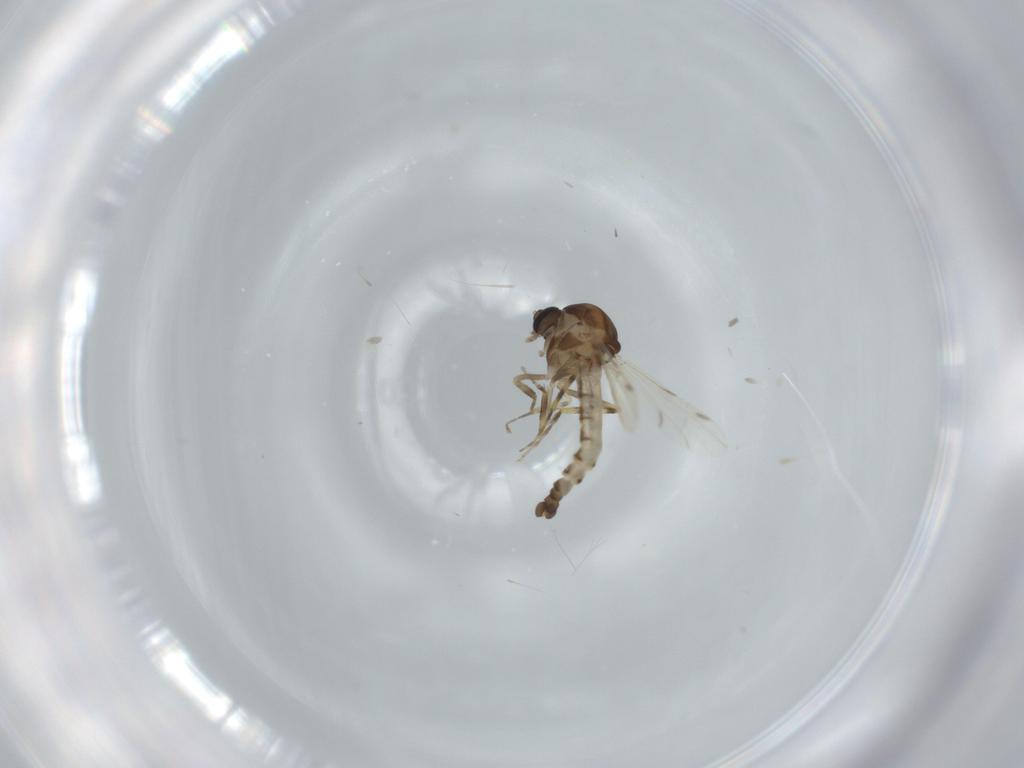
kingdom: Animalia
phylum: Arthropoda
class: Insecta
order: Diptera
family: Ceratopogonidae
